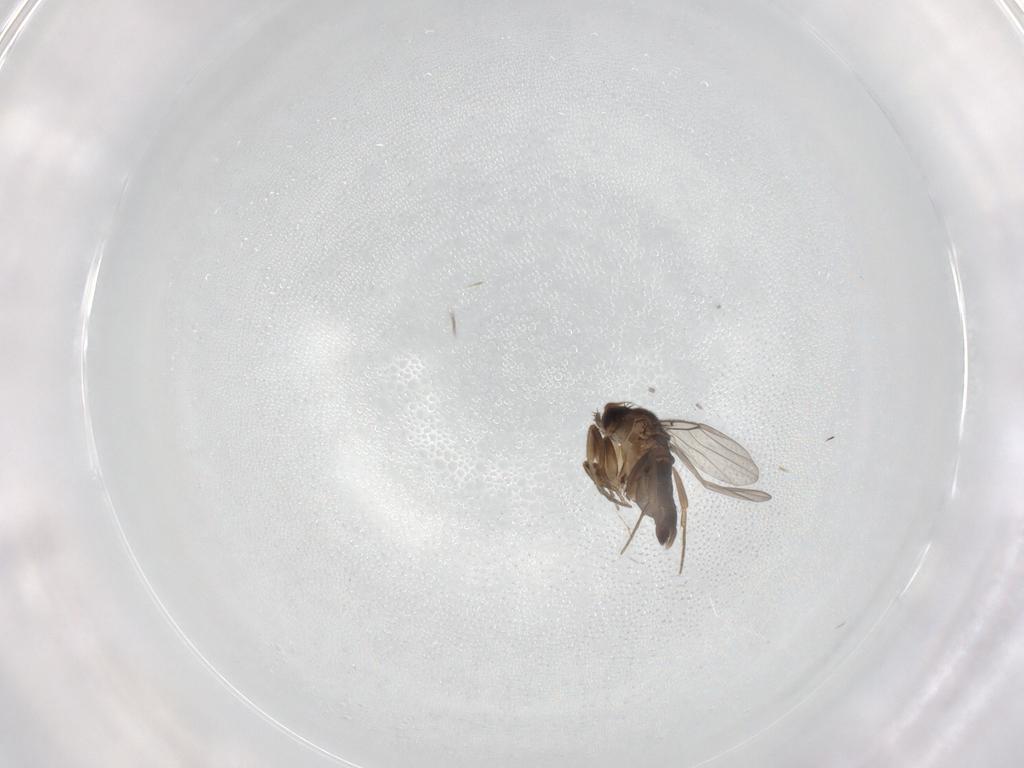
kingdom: Animalia
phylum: Arthropoda
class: Insecta
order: Diptera
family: Phoridae
